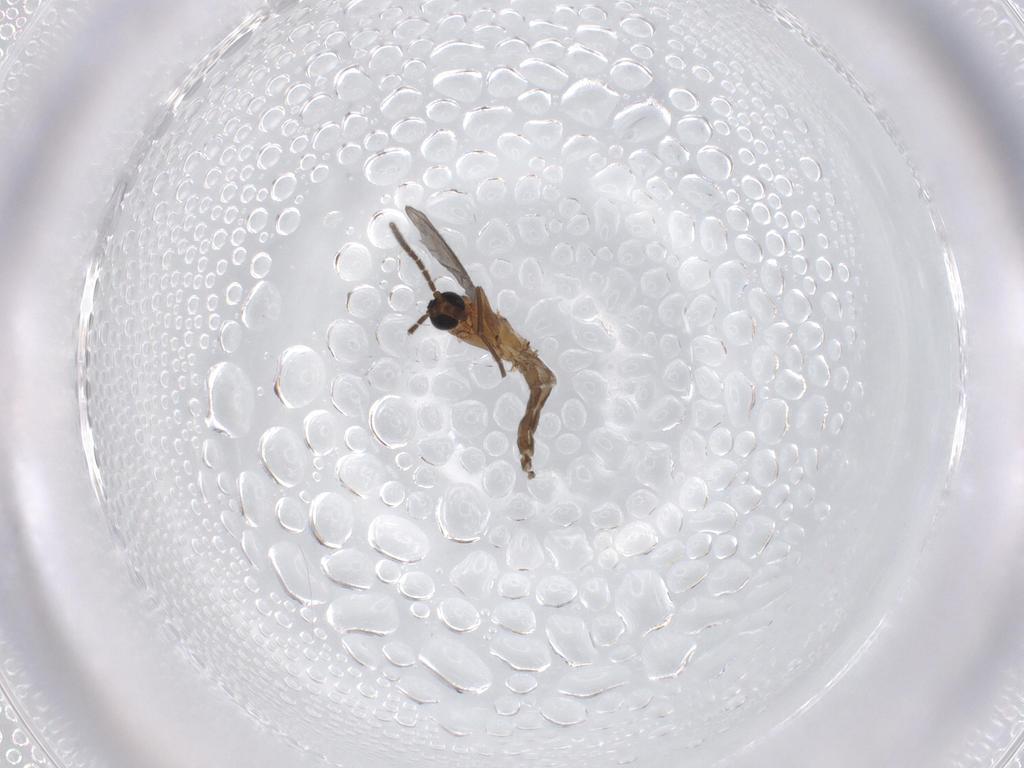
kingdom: Animalia
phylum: Arthropoda
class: Insecta
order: Diptera
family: Sciaridae
